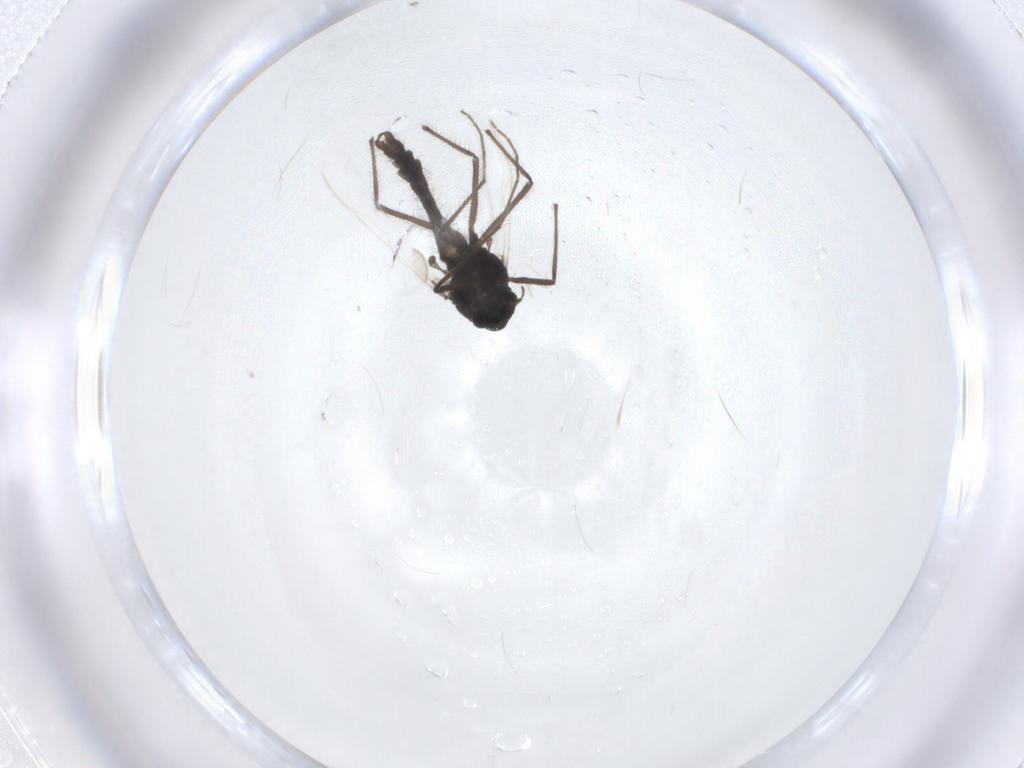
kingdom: Animalia
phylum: Arthropoda
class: Insecta
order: Diptera
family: Chironomidae
